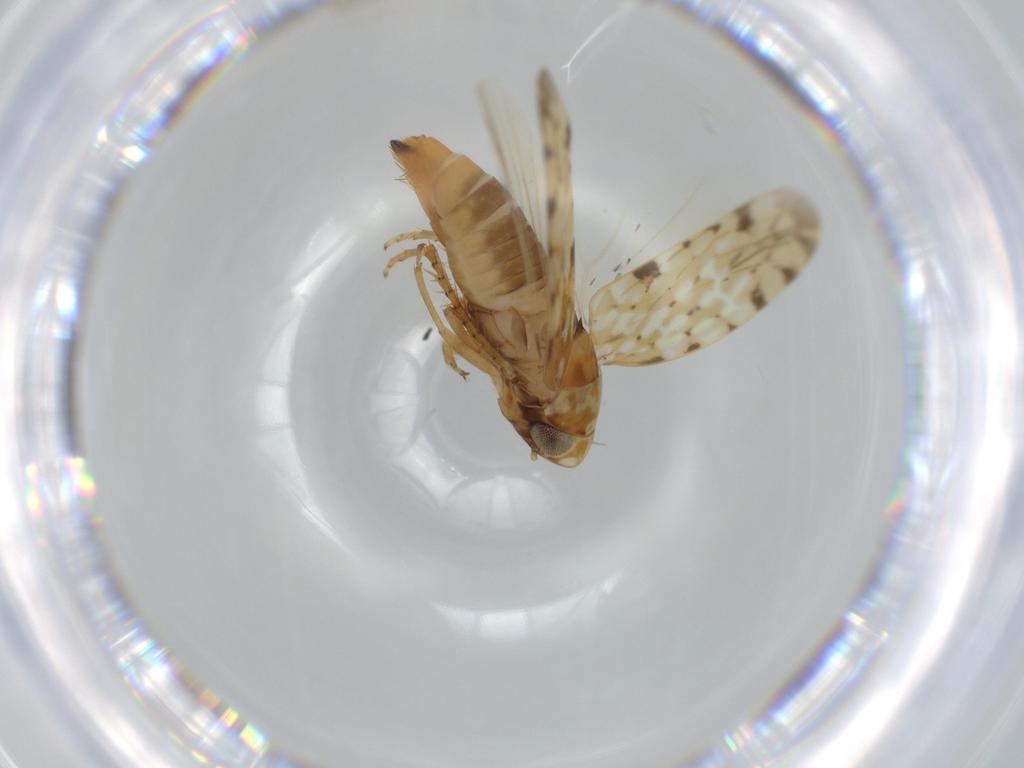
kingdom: Animalia
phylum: Arthropoda
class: Insecta
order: Hemiptera
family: Cicadellidae
